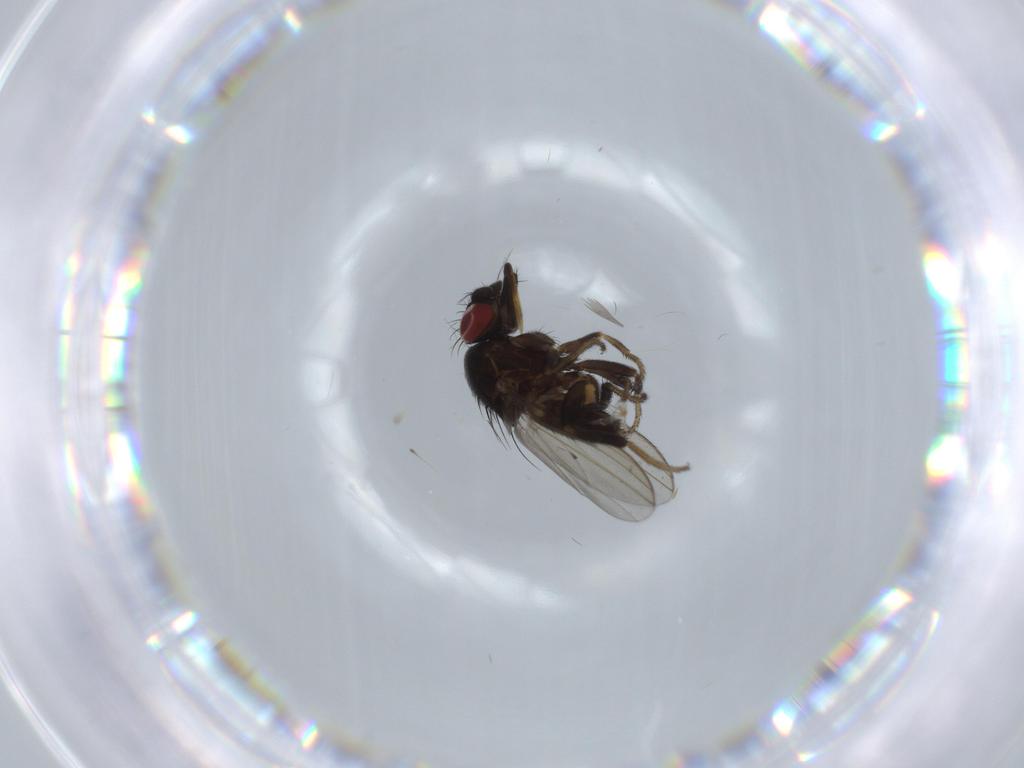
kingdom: Animalia
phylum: Arthropoda
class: Insecta
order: Diptera
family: Milichiidae
